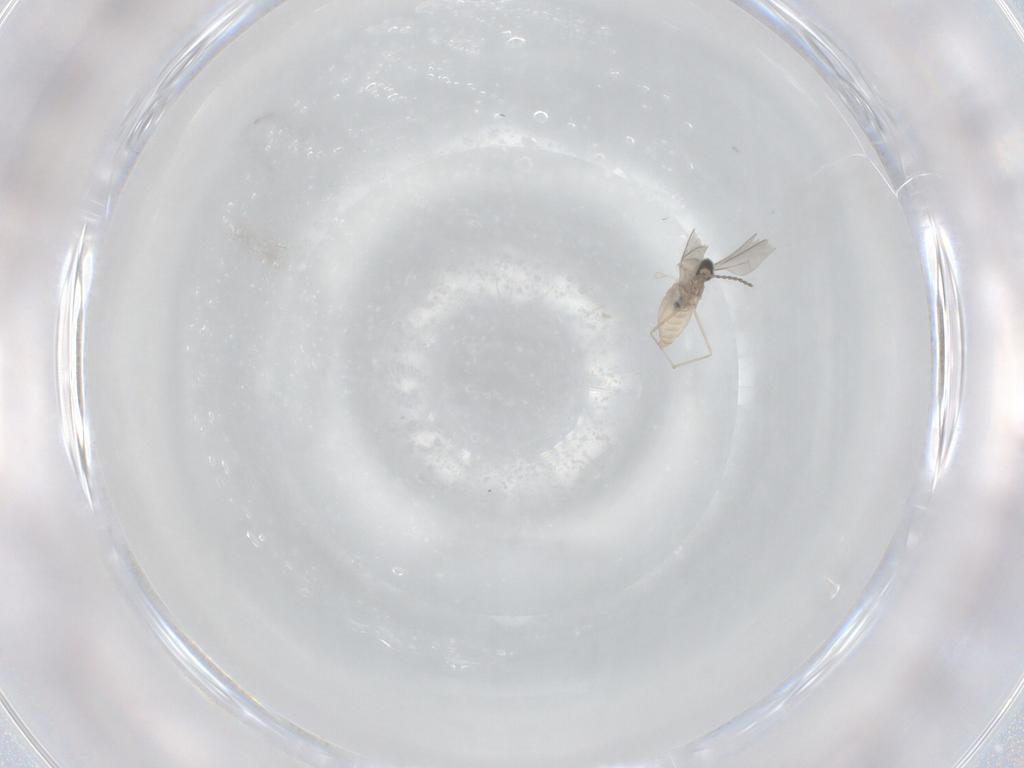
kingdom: Animalia
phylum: Arthropoda
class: Insecta
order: Diptera
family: Cecidomyiidae
